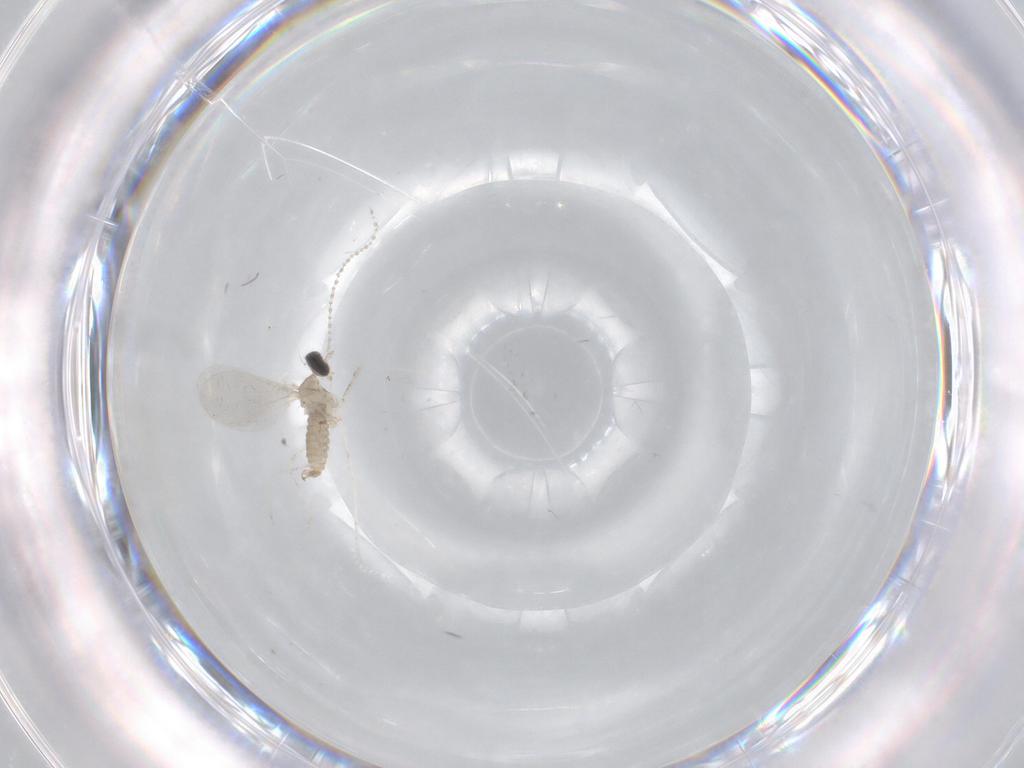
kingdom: Animalia
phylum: Arthropoda
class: Insecta
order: Diptera
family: Cecidomyiidae
